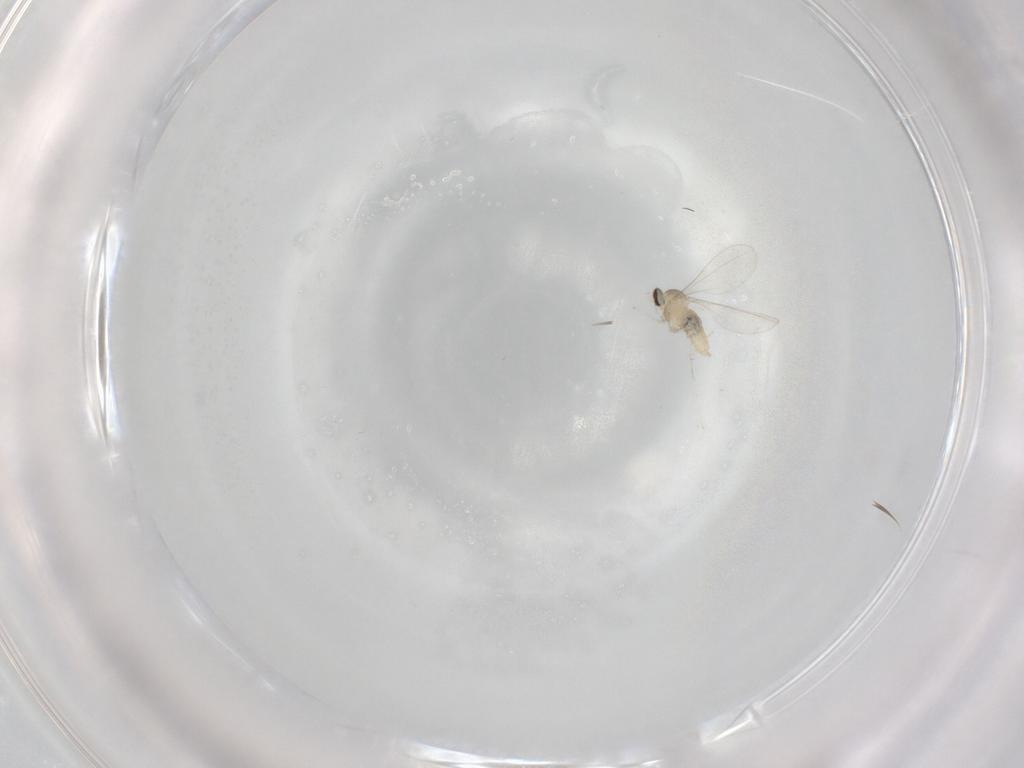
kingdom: Animalia
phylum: Arthropoda
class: Insecta
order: Diptera
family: Cecidomyiidae
